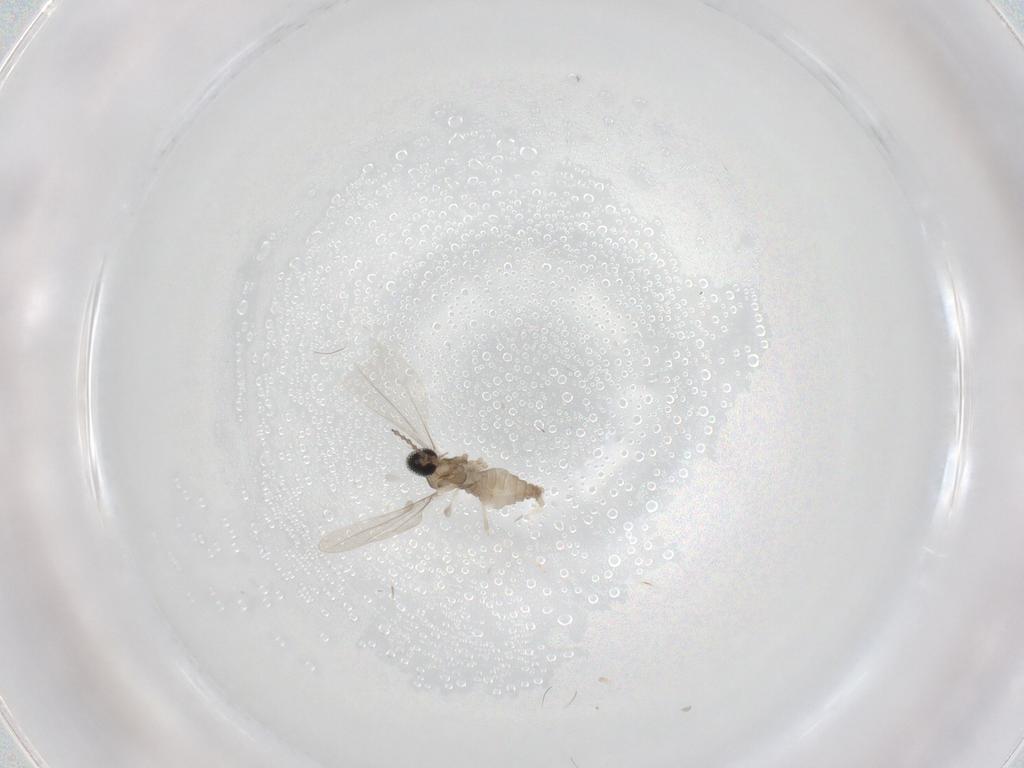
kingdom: Animalia
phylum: Arthropoda
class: Insecta
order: Diptera
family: Cecidomyiidae
